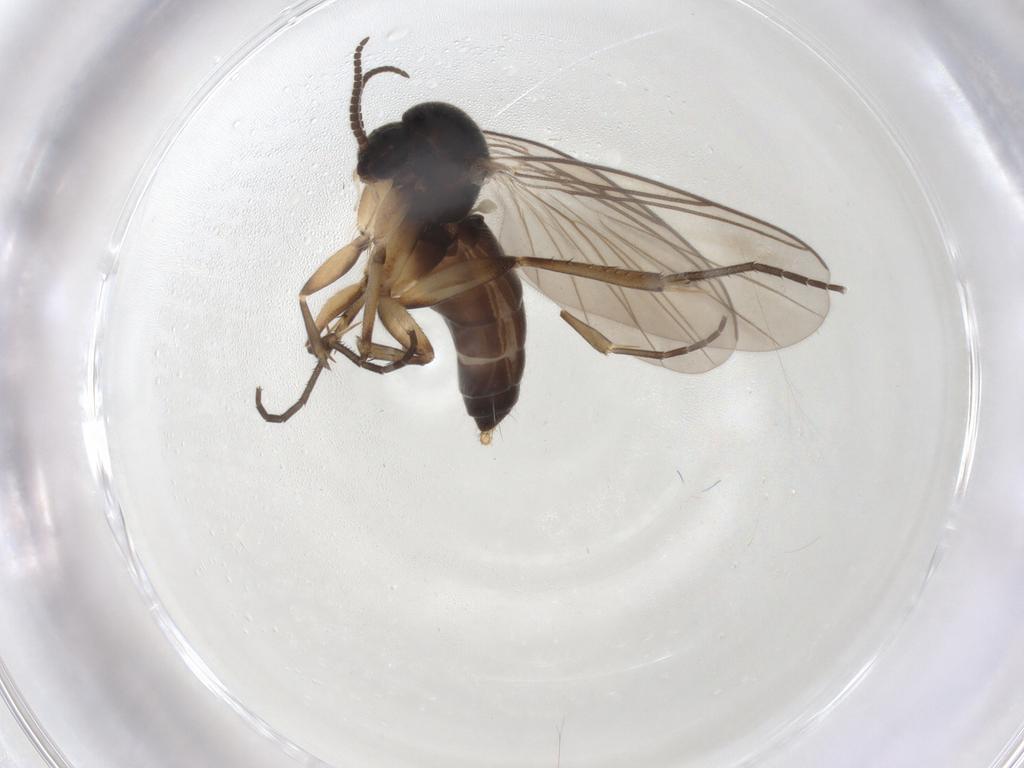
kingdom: Animalia
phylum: Arthropoda
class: Insecta
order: Diptera
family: Mycetophilidae
